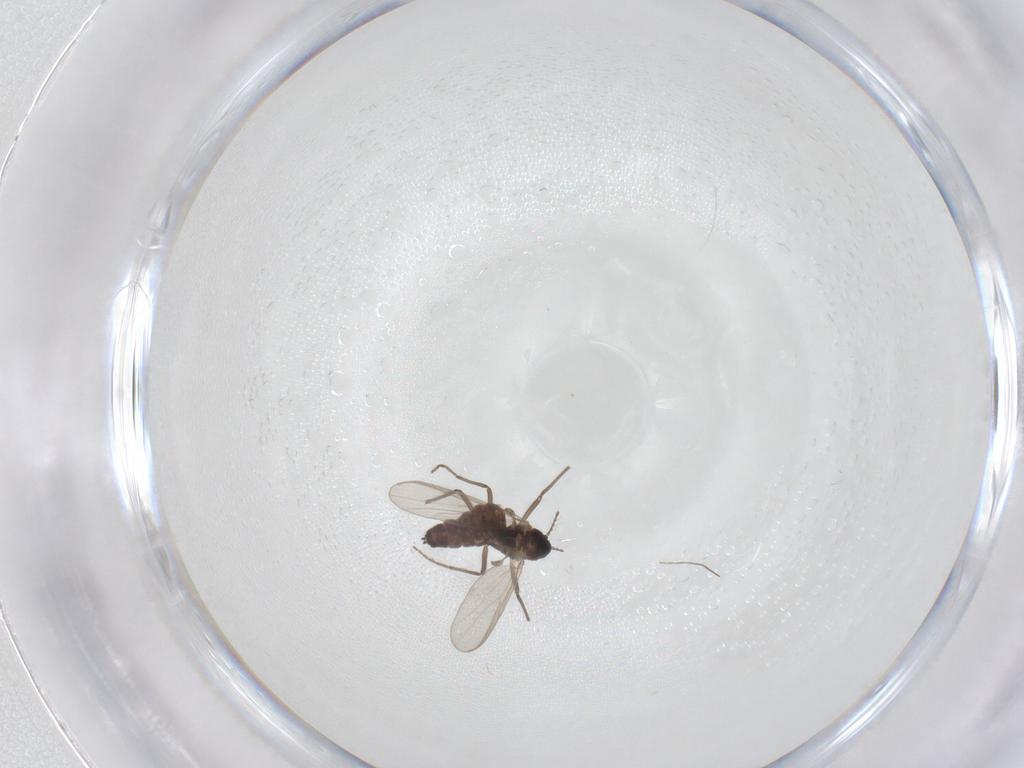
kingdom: Animalia
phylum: Arthropoda
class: Insecta
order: Diptera
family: Chironomidae
